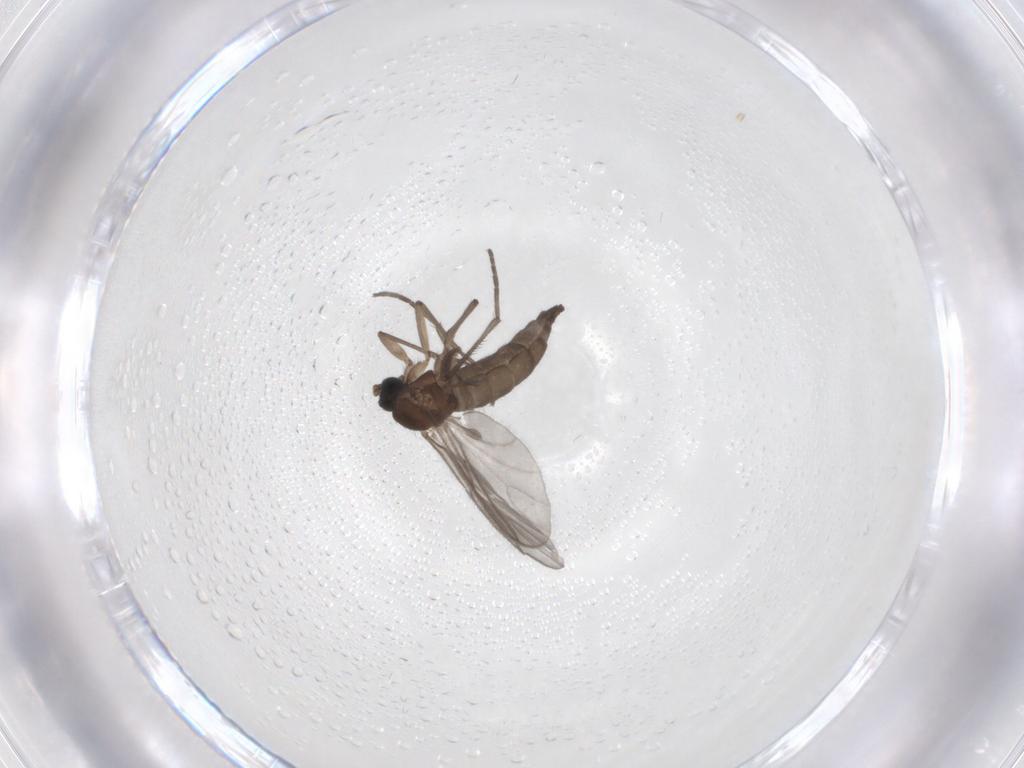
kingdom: Animalia
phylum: Arthropoda
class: Insecta
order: Diptera
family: Sciaridae
